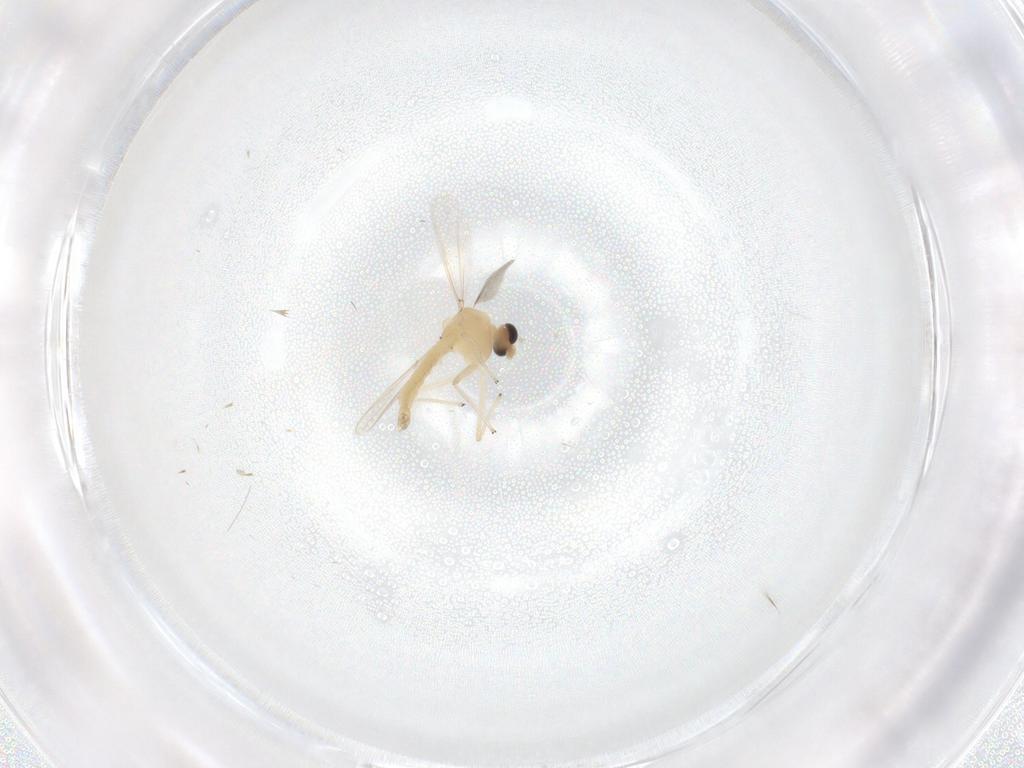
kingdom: Animalia
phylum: Arthropoda
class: Insecta
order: Diptera
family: Chironomidae
